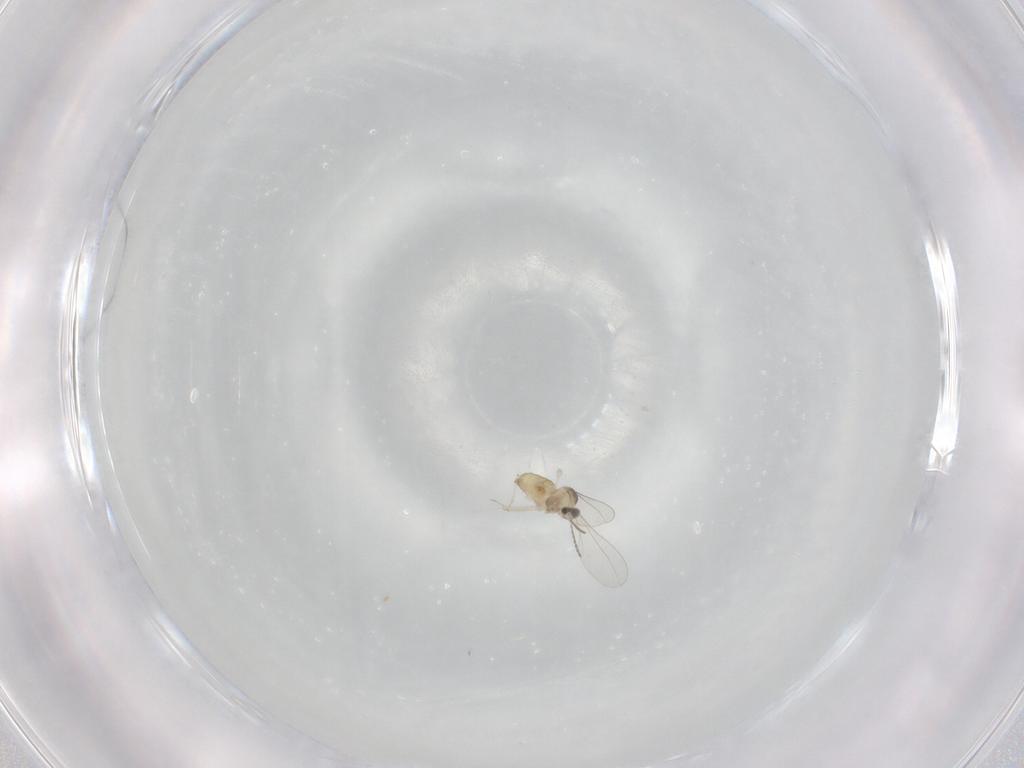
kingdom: Animalia
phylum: Arthropoda
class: Insecta
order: Diptera
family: Cecidomyiidae
